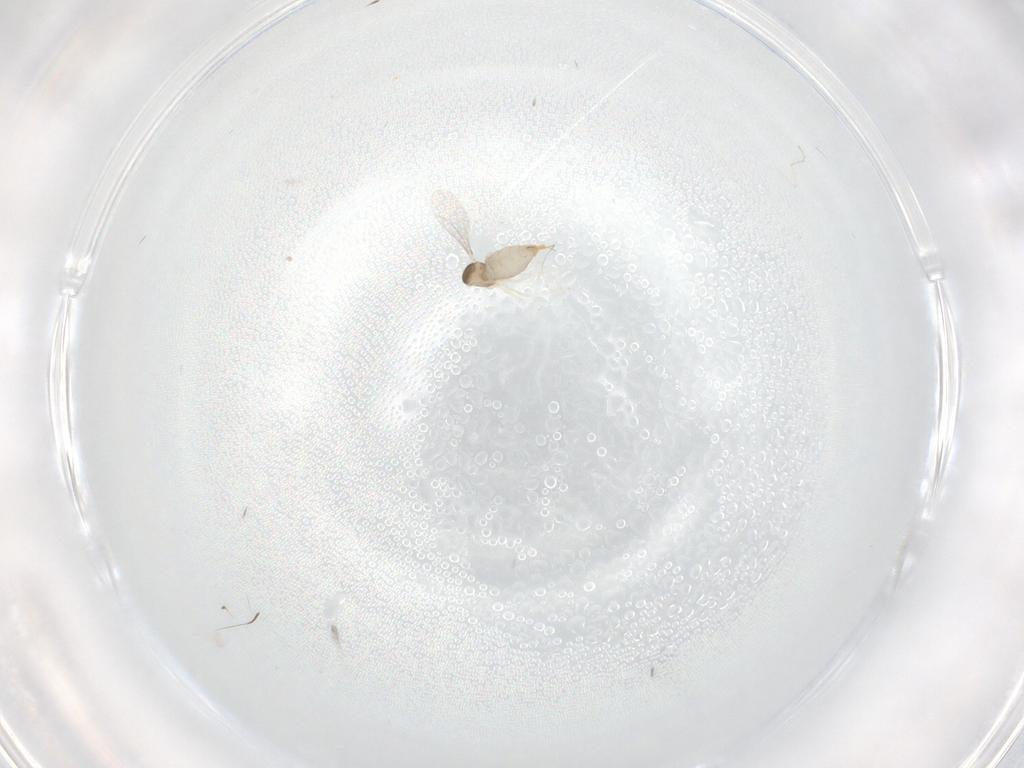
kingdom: Animalia
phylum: Arthropoda
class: Insecta
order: Diptera
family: Cecidomyiidae
